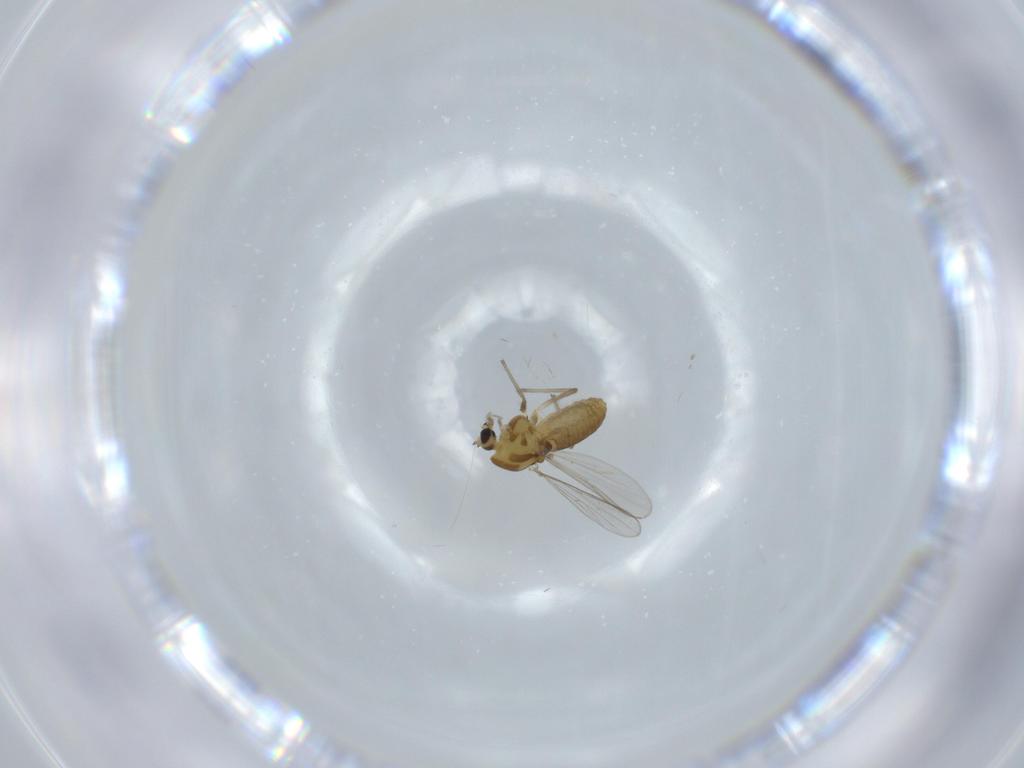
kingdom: Animalia
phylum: Arthropoda
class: Insecta
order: Diptera
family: Chironomidae
